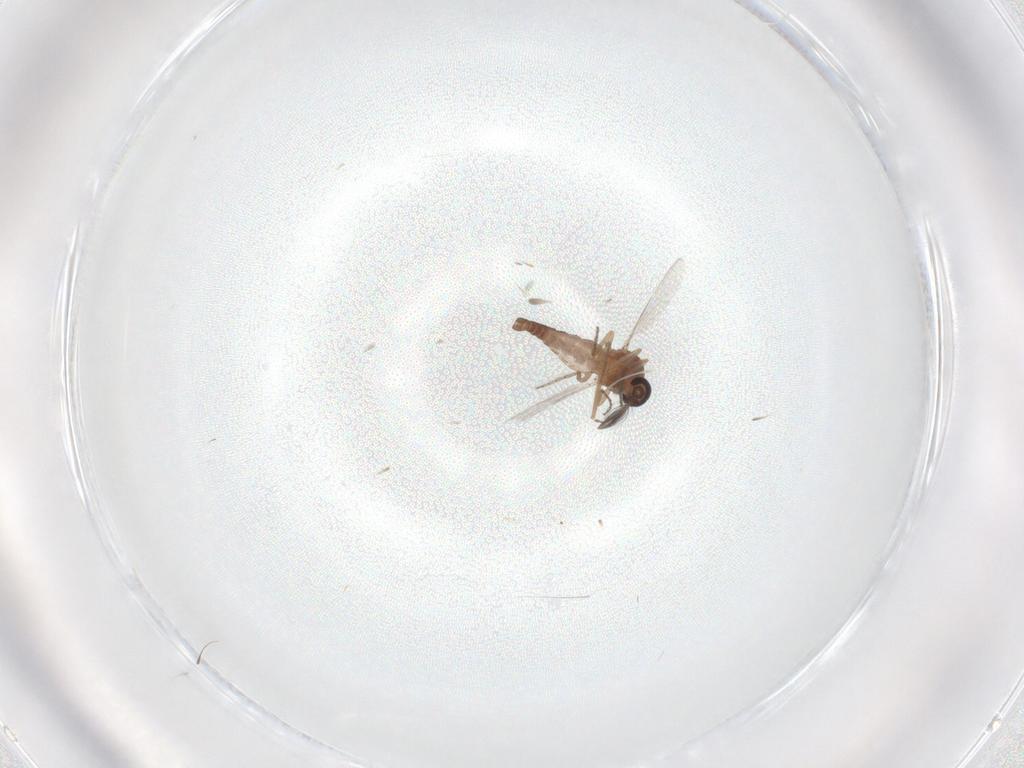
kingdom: Animalia
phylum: Arthropoda
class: Insecta
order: Diptera
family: Ceratopogonidae
